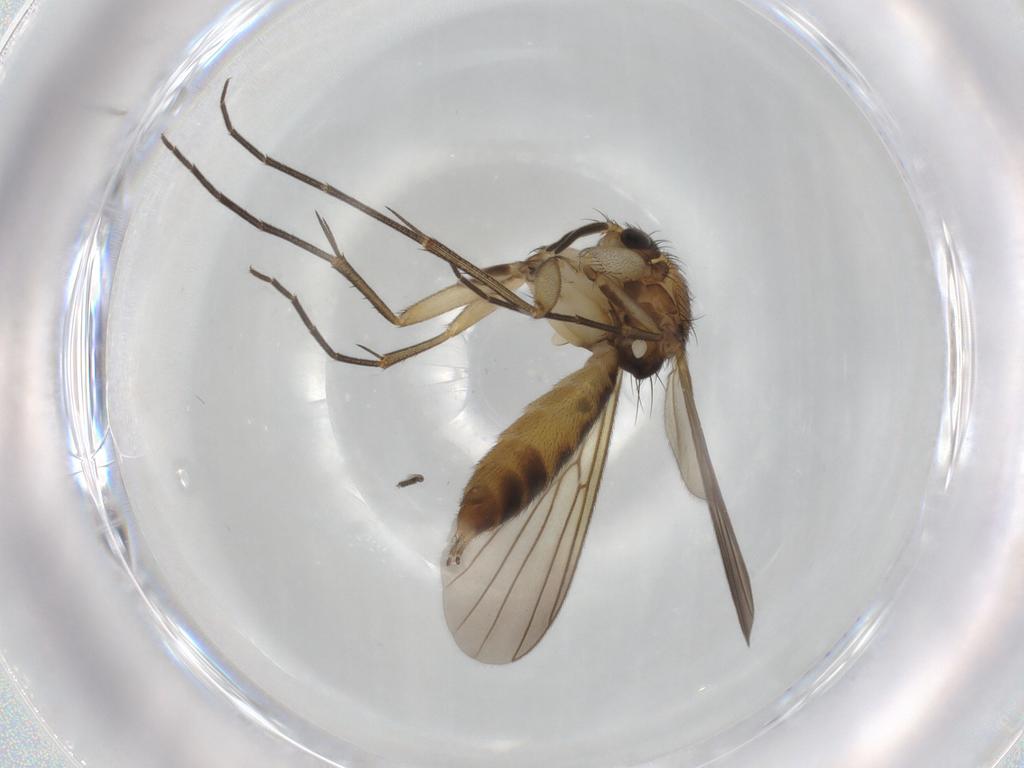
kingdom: Animalia
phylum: Arthropoda
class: Insecta
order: Diptera
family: Mycetophilidae
